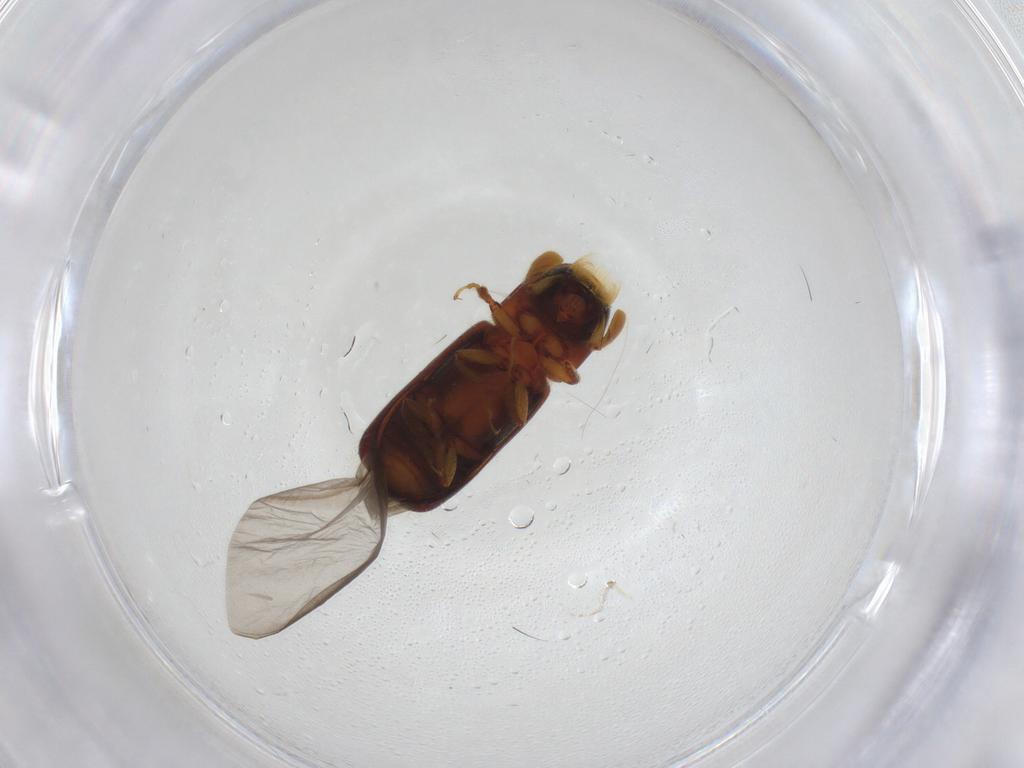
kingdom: Animalia
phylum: Arthropoda
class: Insecta
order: Coleoptera
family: Curculionidae
